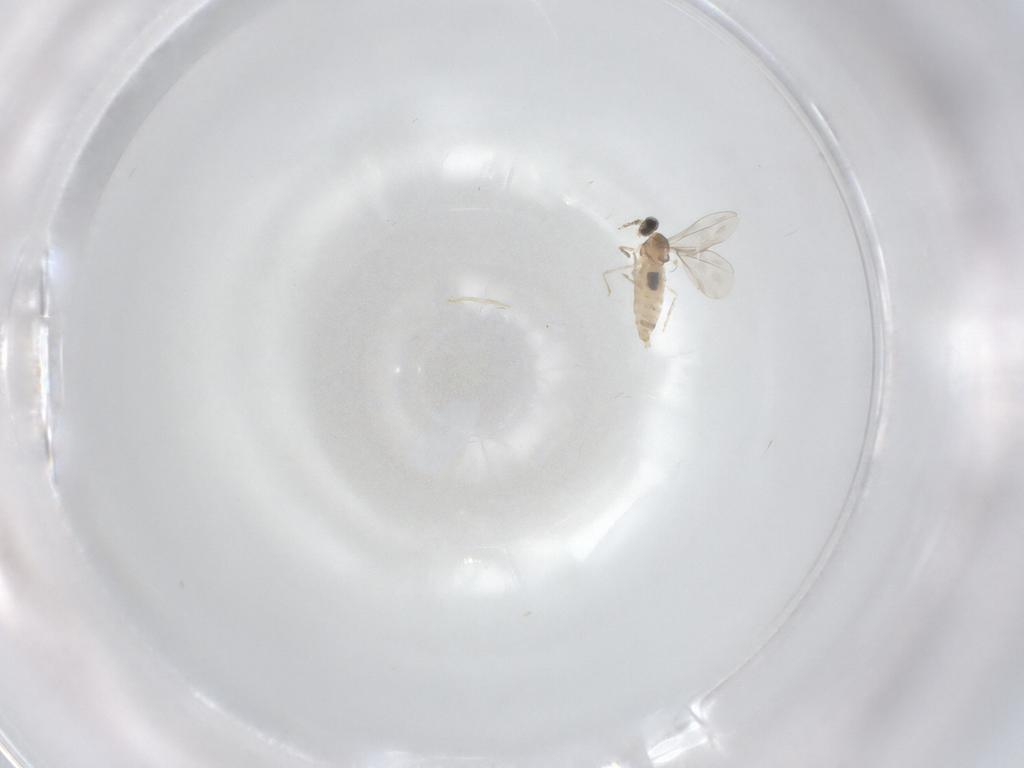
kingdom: Animalia
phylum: Arthropoda
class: Insecta
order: Diptera
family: Cecidomyiidae
